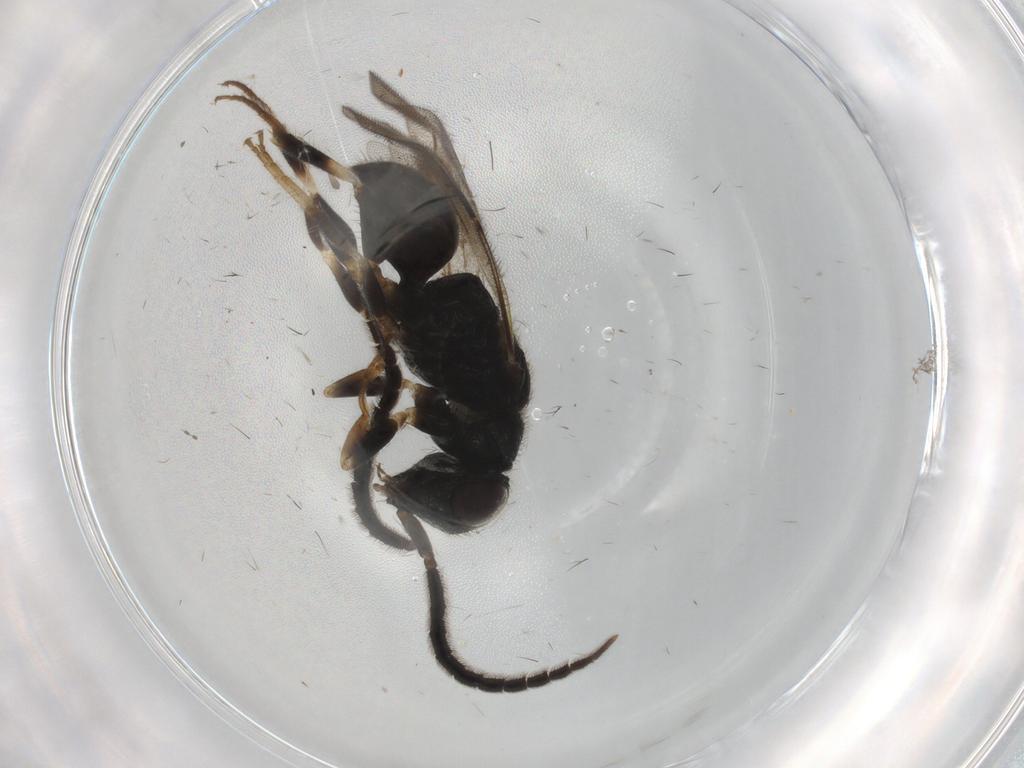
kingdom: Animalia
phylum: Arthropoda
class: Insecta
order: Hymenoptera
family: Chrysididae
